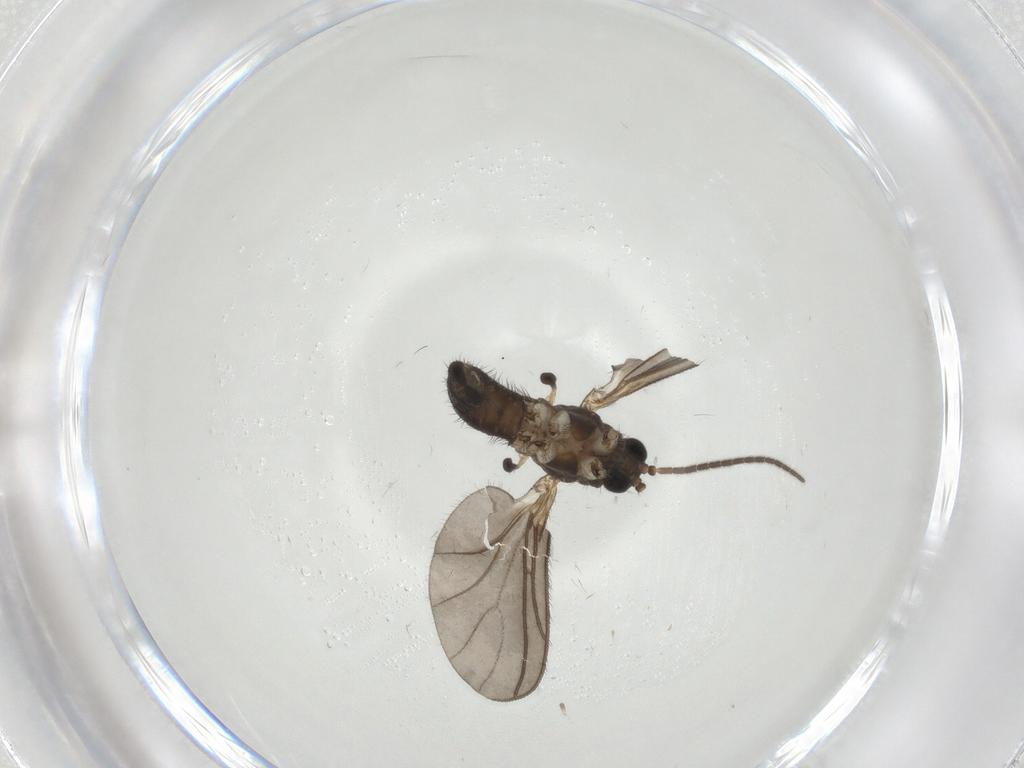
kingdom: Animalia
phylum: Arthropoda
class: Insecta
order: Diptera
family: Sciaridae
